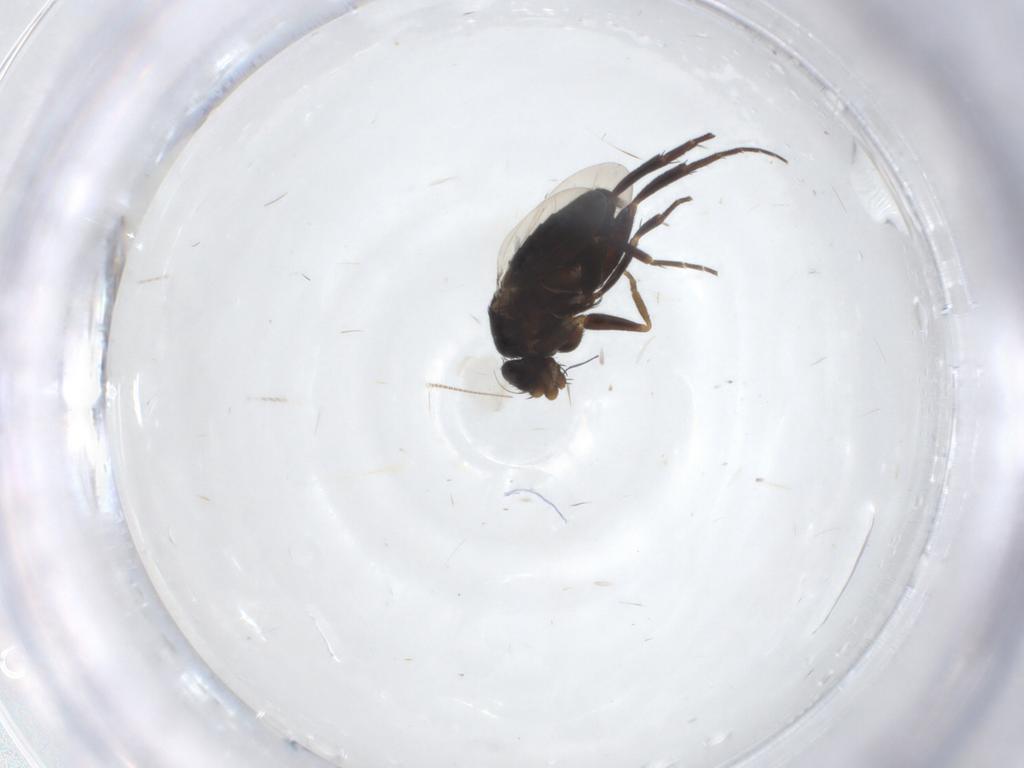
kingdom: Animalia
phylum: Arthropoda
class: Insecta
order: Diptera
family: Phoridae
